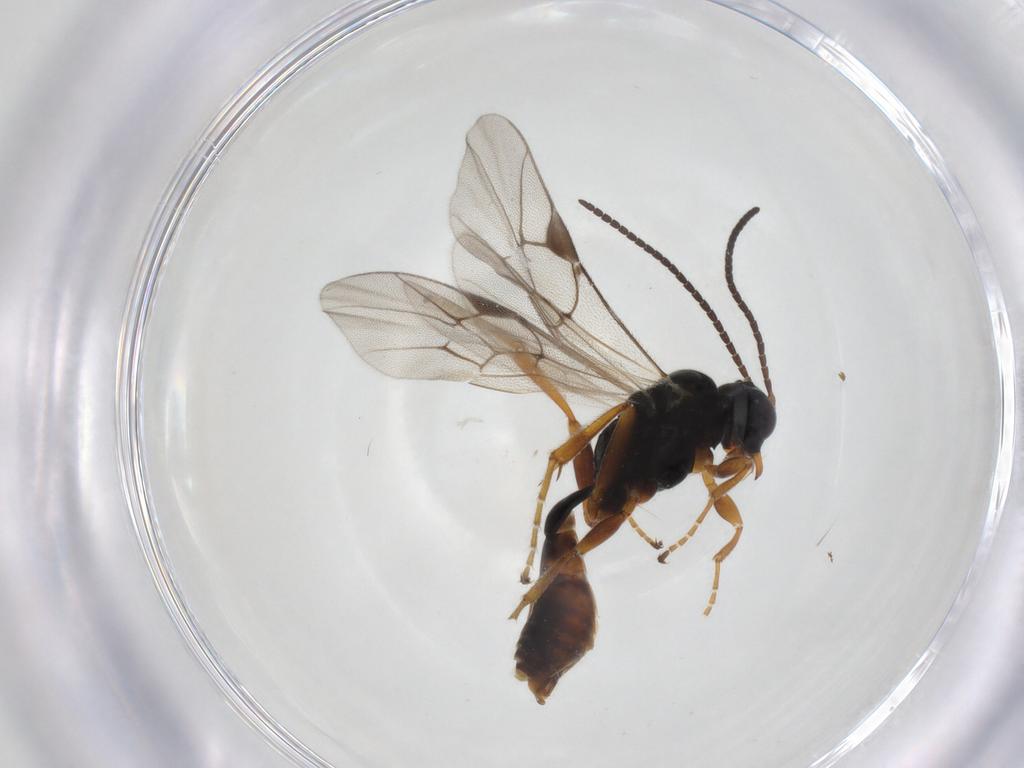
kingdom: Animalia
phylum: Arthropoda
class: Insecta
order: Hymenoptera
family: Ichneumonidae
